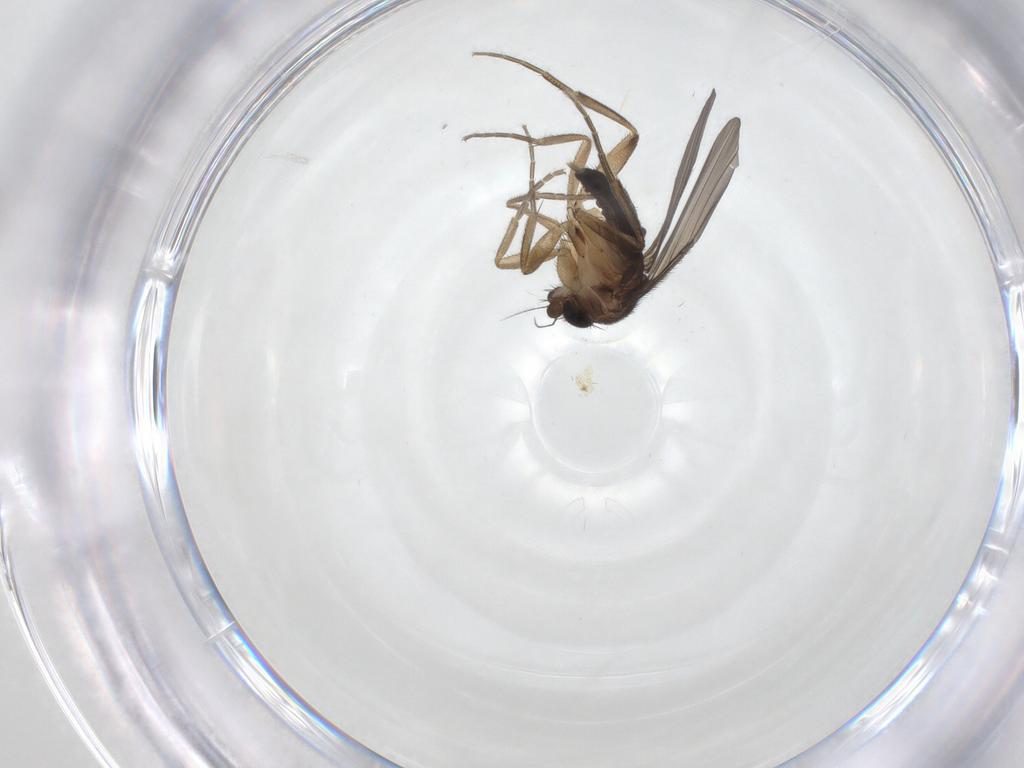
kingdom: Animalia
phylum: Arthropoda
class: Insecta
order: Diptera
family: Phoridae
